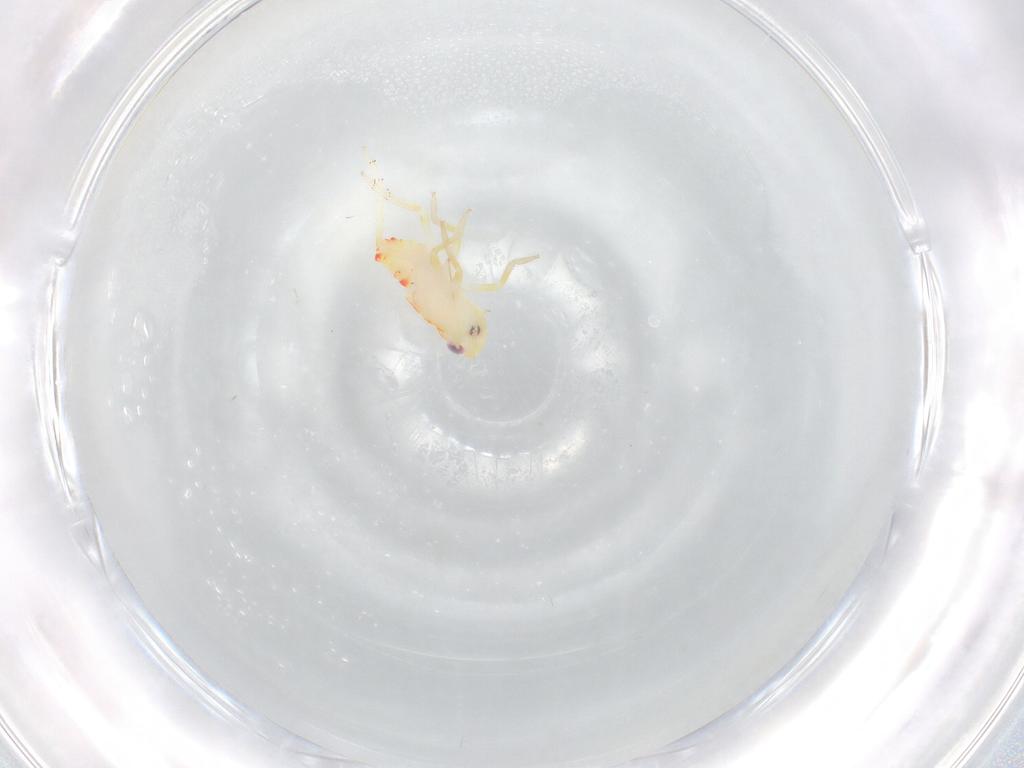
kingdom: Animalia
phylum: Arthropoda
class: Insecta
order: Hemiptera
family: Tropiduchidae
